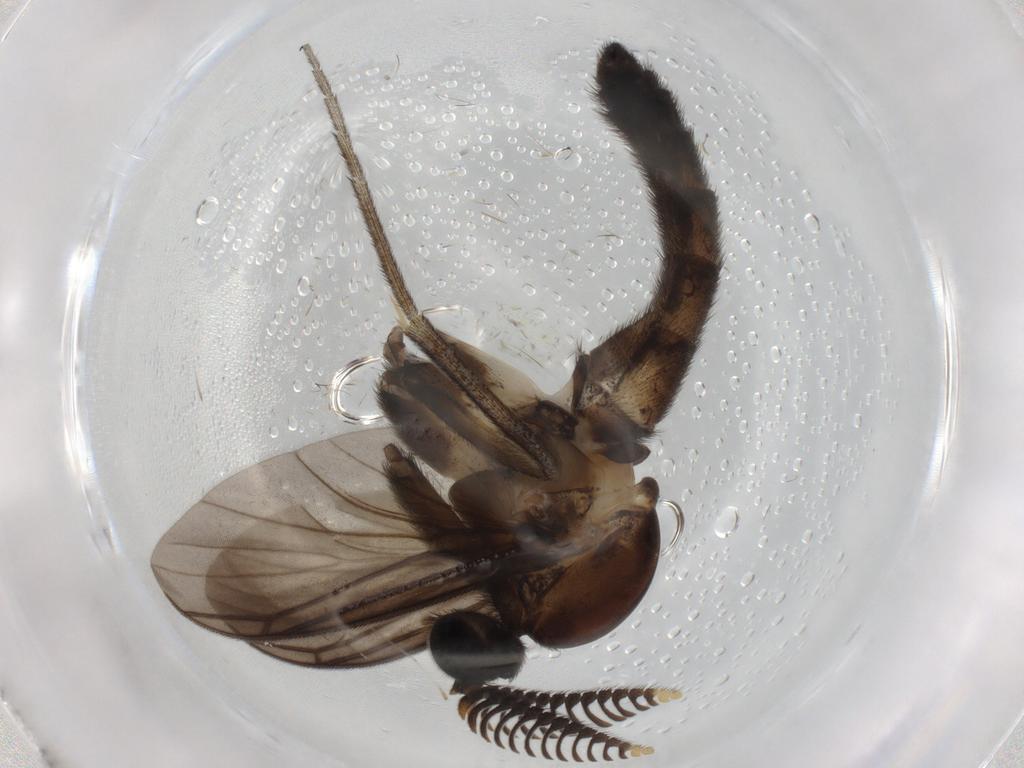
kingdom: Animalia
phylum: Arthropoda
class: Insecta
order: Diptera
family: Sciaridae
